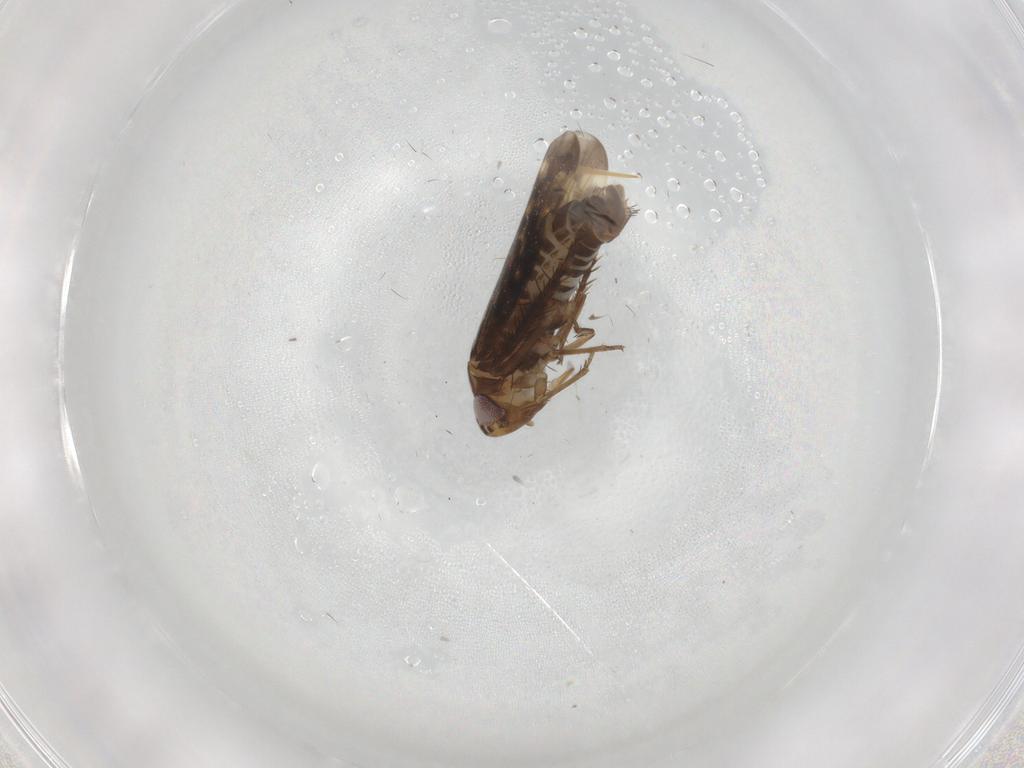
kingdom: Animalia
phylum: Arthropoda
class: Insecta
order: Hemiptera
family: Cicadellidae
